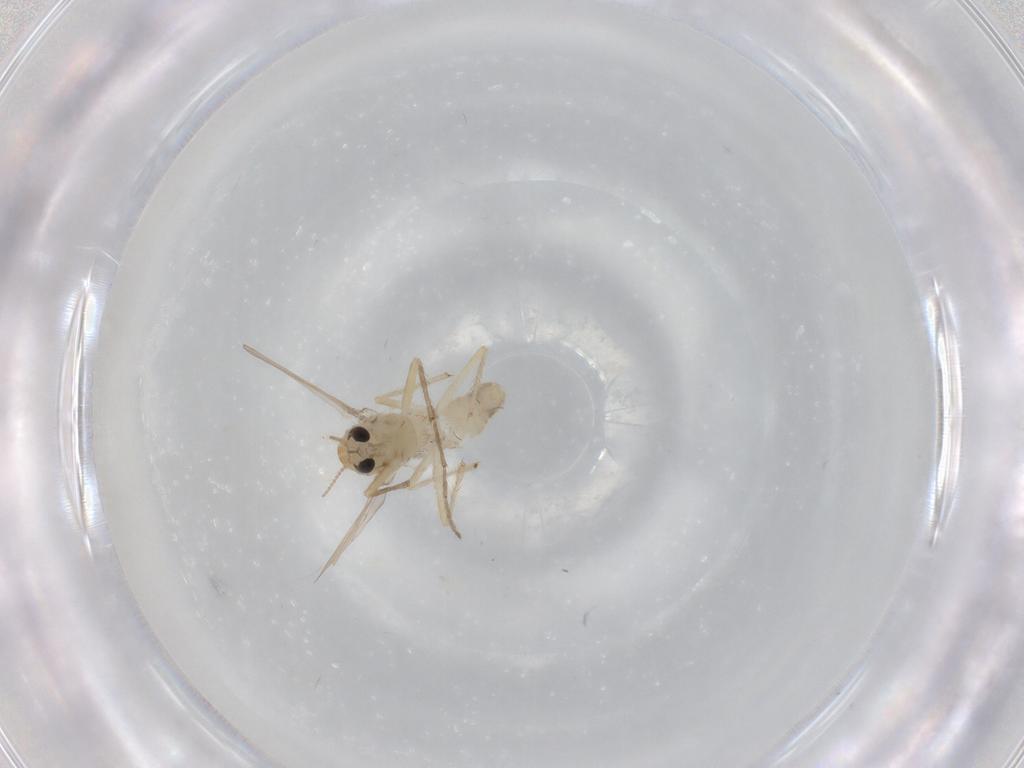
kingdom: Animalia
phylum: Arthropoda
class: Insecta
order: Diptera
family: Chironomidae
